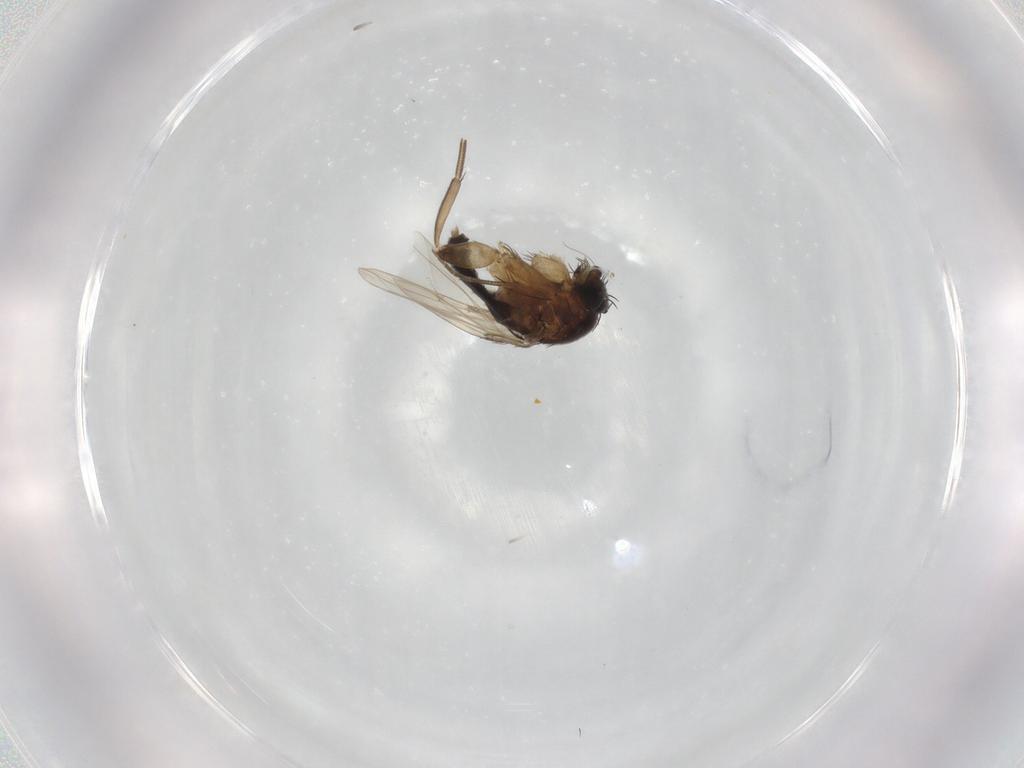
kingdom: Animalia
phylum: Arthropoda
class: Insecta
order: Diptera
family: Phoridae
